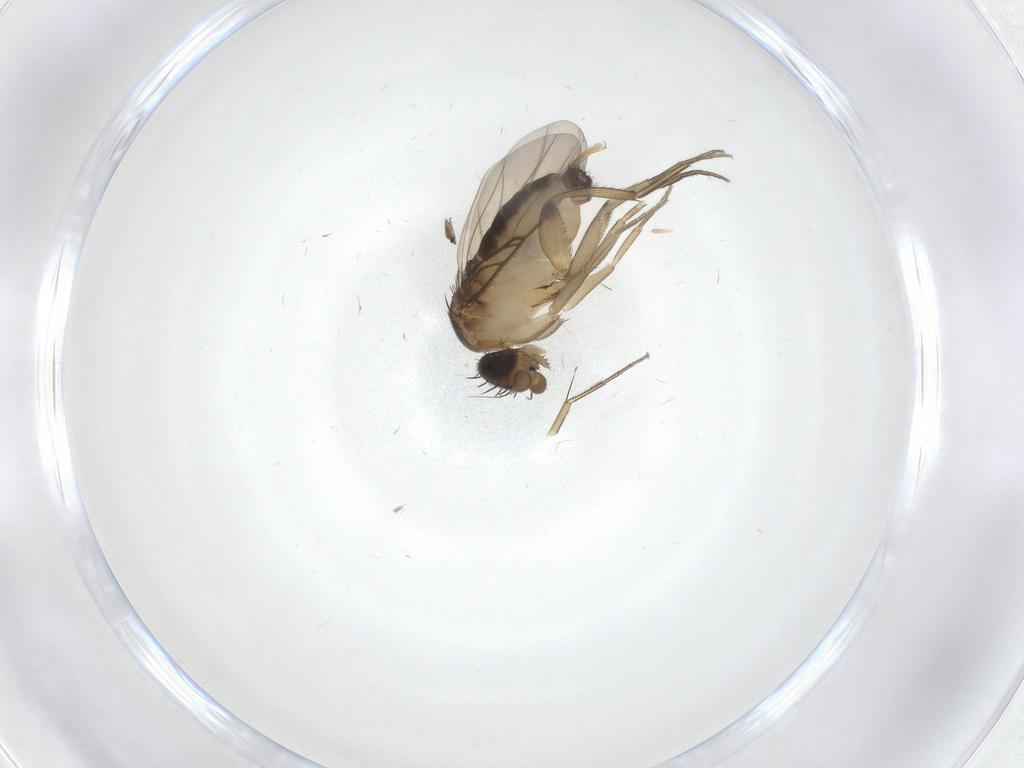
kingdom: Animalia
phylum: Arthropoda
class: Insecta
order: Diptera
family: Phoridae
